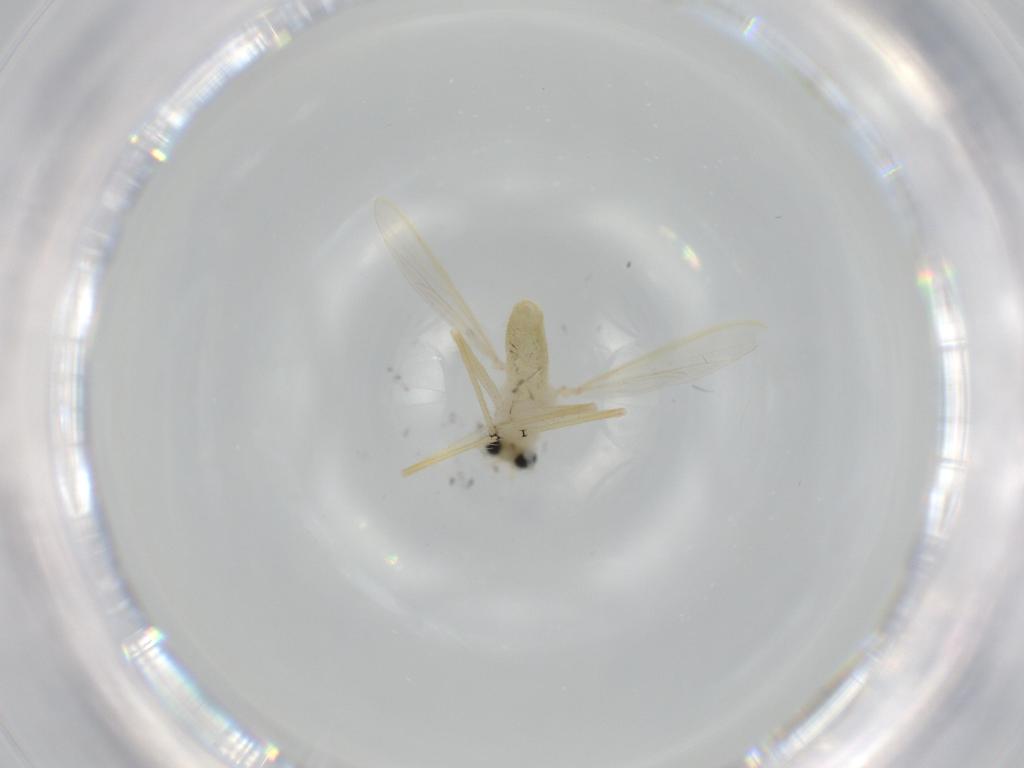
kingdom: Animalia
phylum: Arthropoda
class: Insecta
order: Diptera
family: Chironomidae
